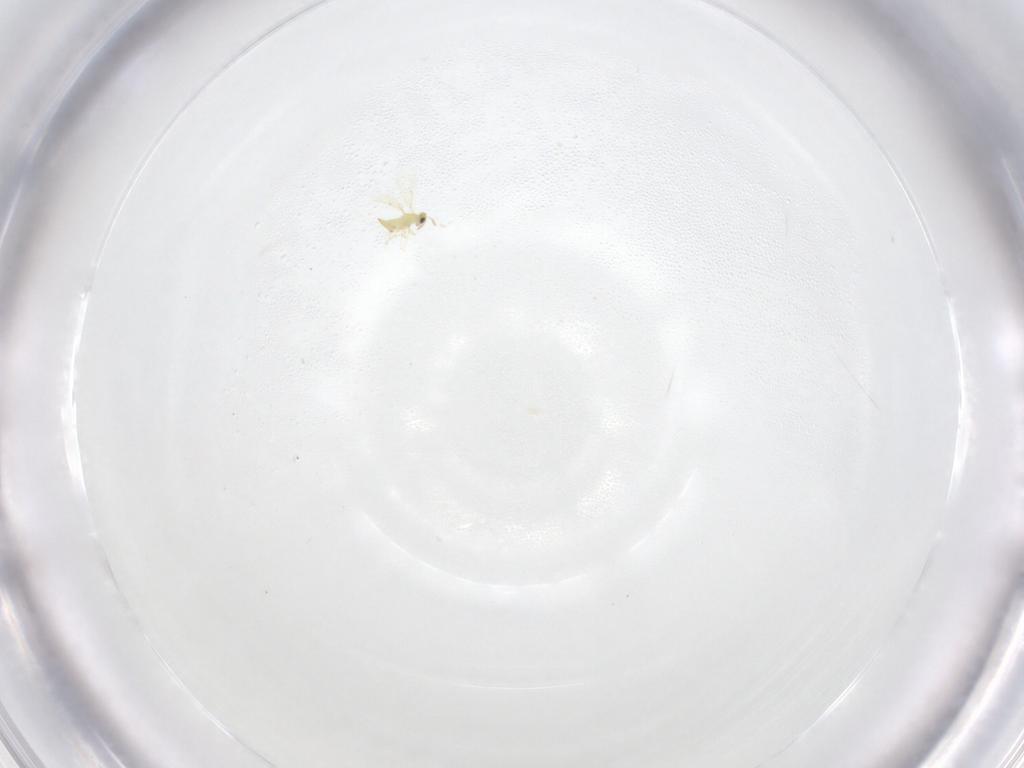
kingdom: Animalia
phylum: Arthropoda
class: Insecta
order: Hymenoptera
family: Trichogrammatidae
